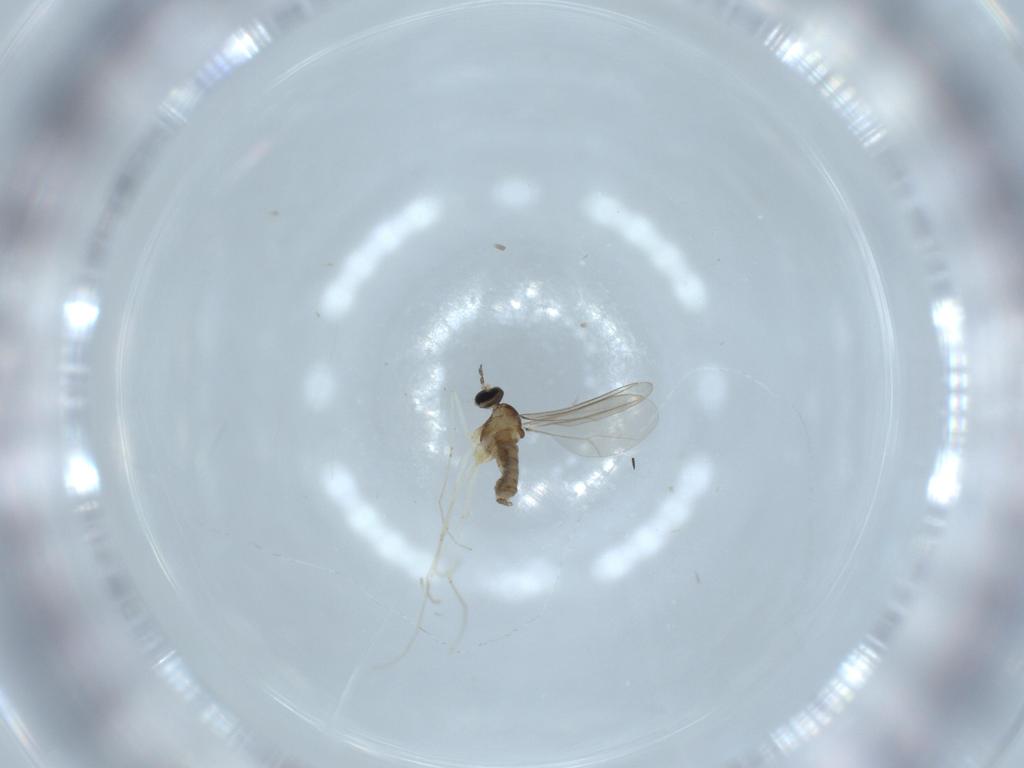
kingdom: Animalia
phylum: Arthropoda
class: Insecta
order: Diptera
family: Cecidomyiidae
